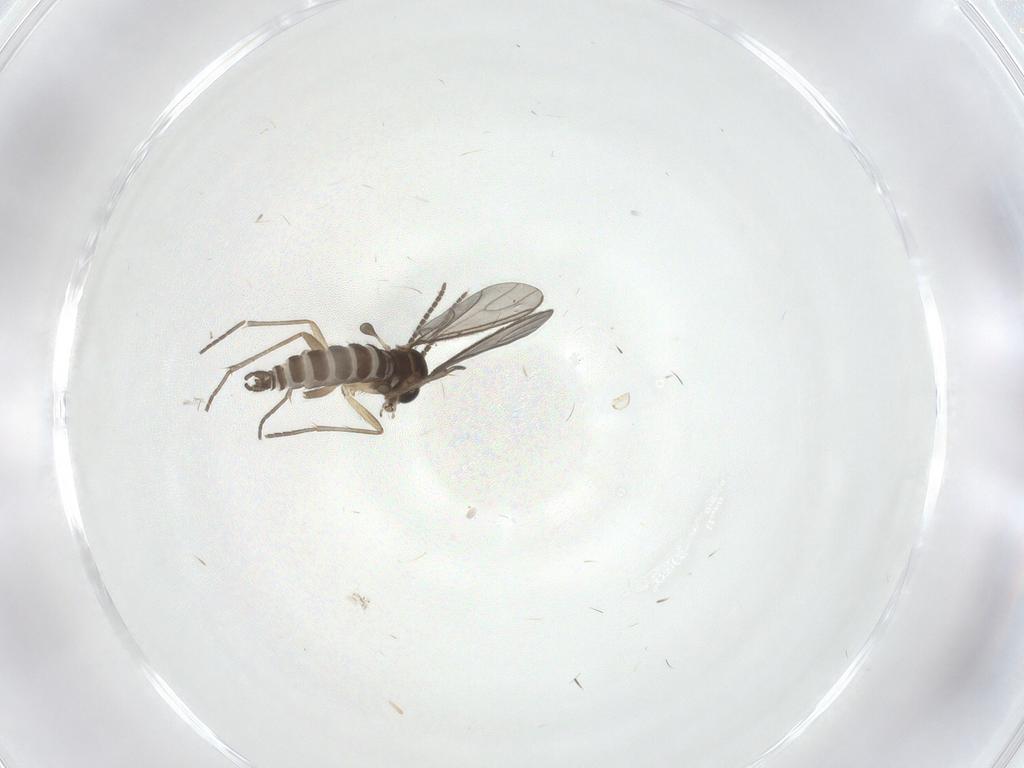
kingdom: Animalia
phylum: Arthropoda
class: Insecta
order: Diptera
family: Sciaridae
